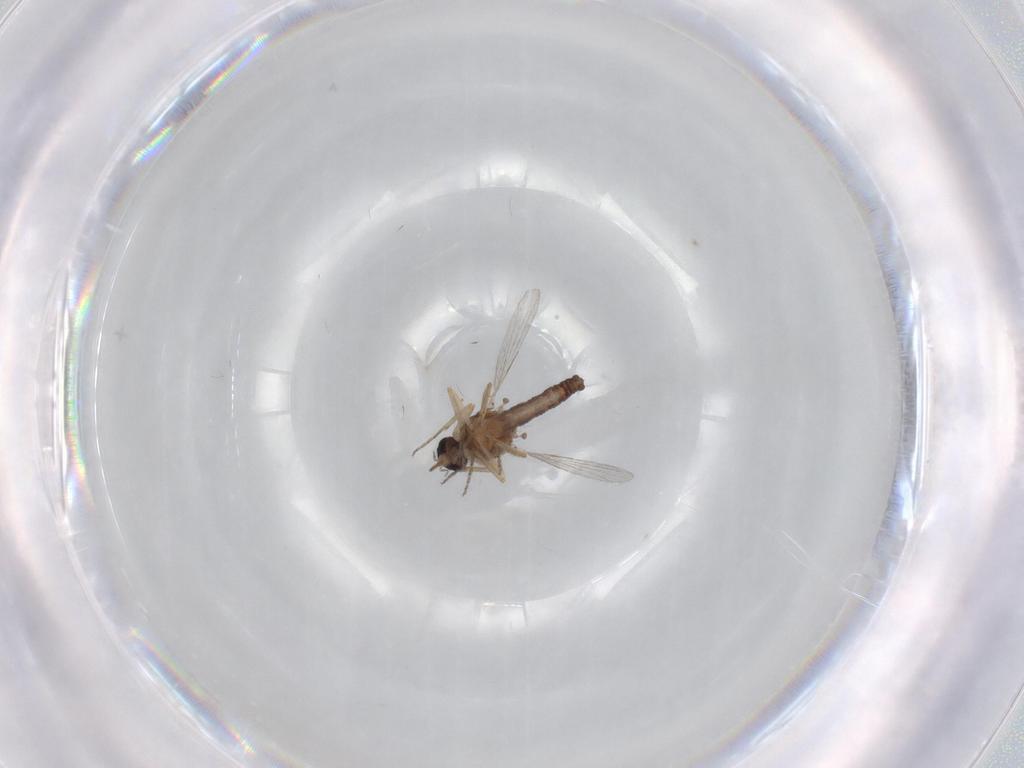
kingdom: Animalia
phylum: Arthropoda
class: Insecta
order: Diptera
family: Ceratopogonidae
